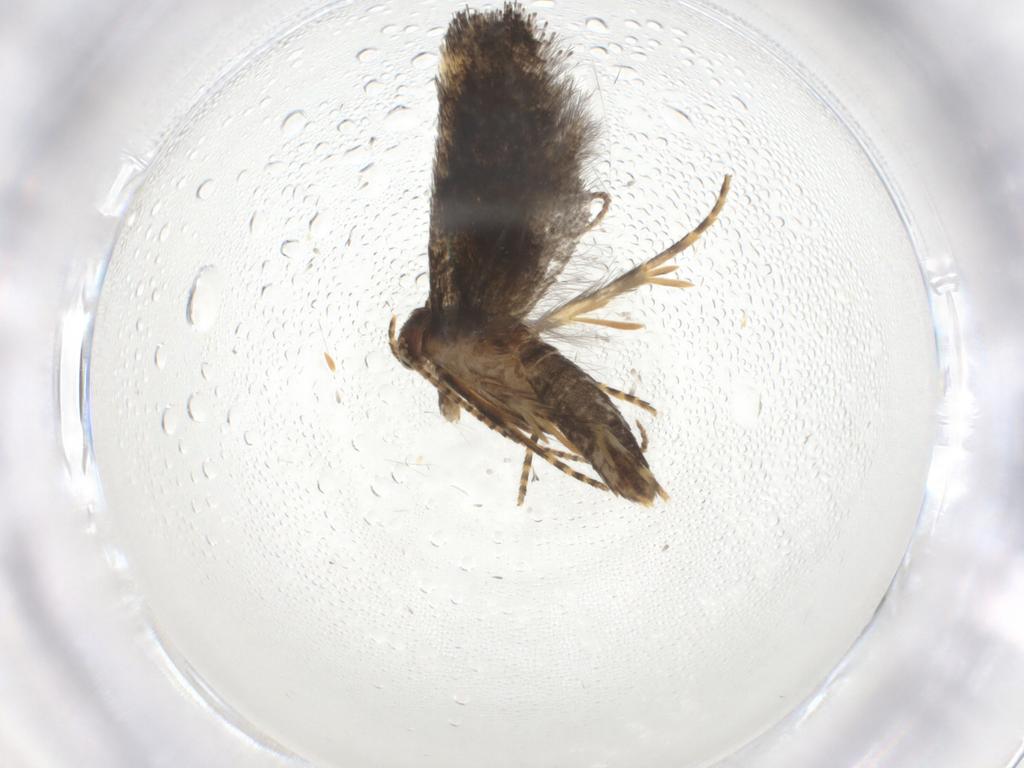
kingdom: Animalia
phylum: Arthropoda
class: Insecta
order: Lepidoptera
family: Gelechiidae
